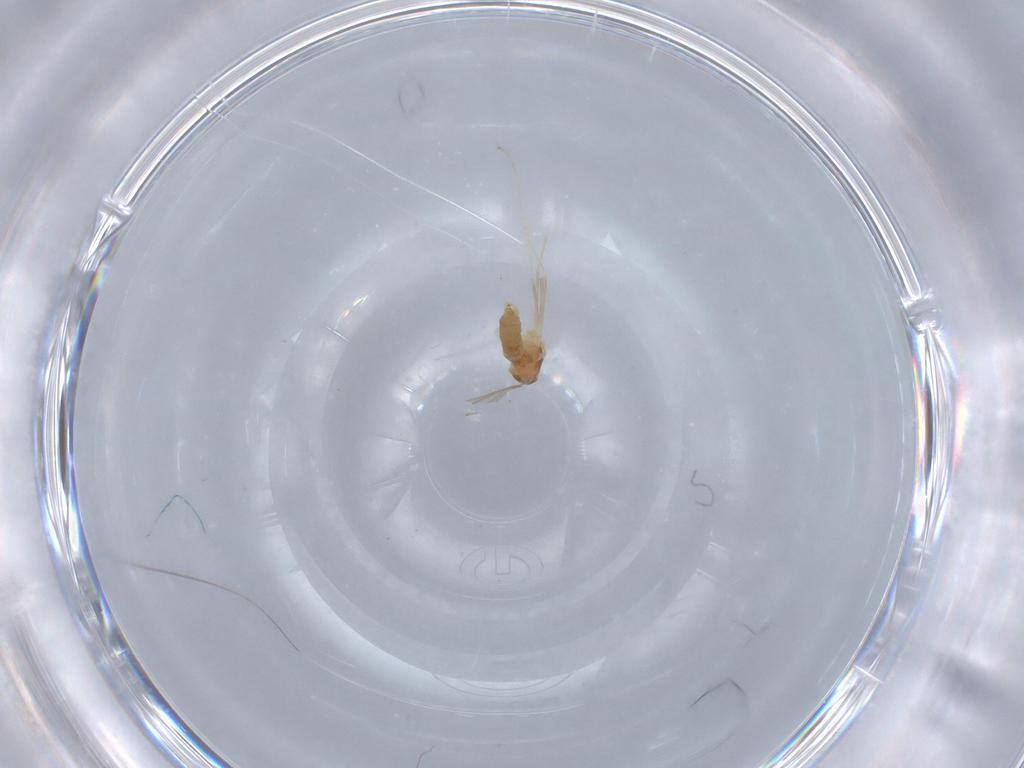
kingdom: Animalia
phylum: Arthropoda
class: Insecta
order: Diptera
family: Cecidomyiidae
